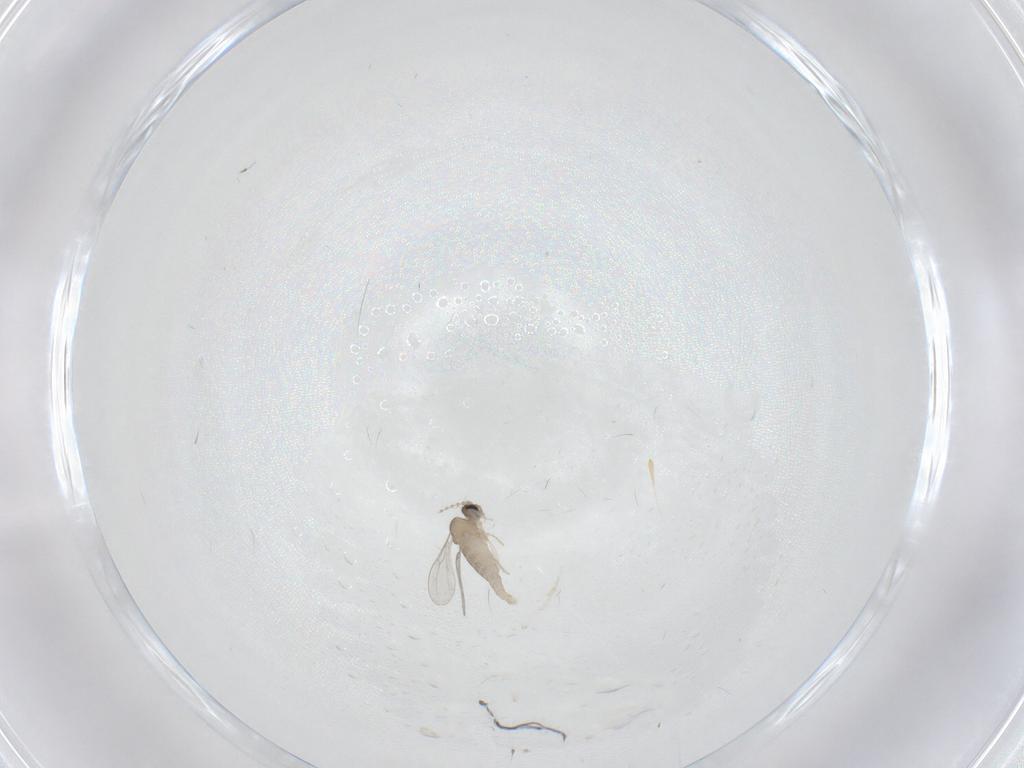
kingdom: Animalia
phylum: Arthropoda
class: Insecta
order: Diptera
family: Cecidomyiidae
